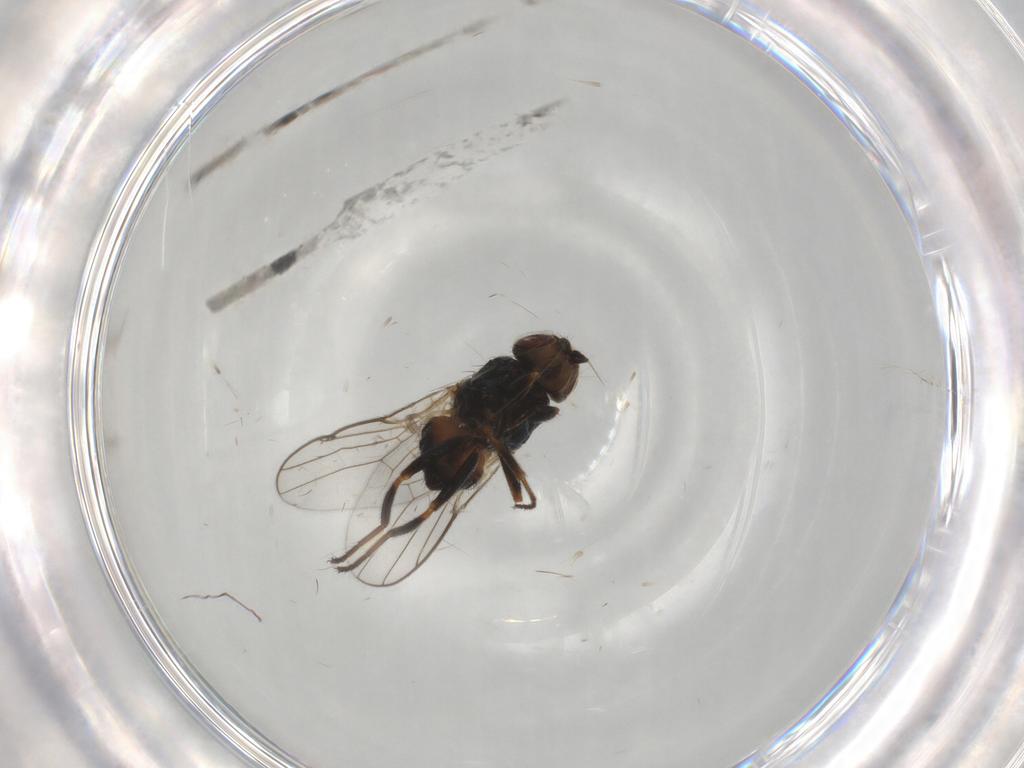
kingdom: Animalia
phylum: Arthropoda
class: Insecta
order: Diptera
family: Chloropidae
